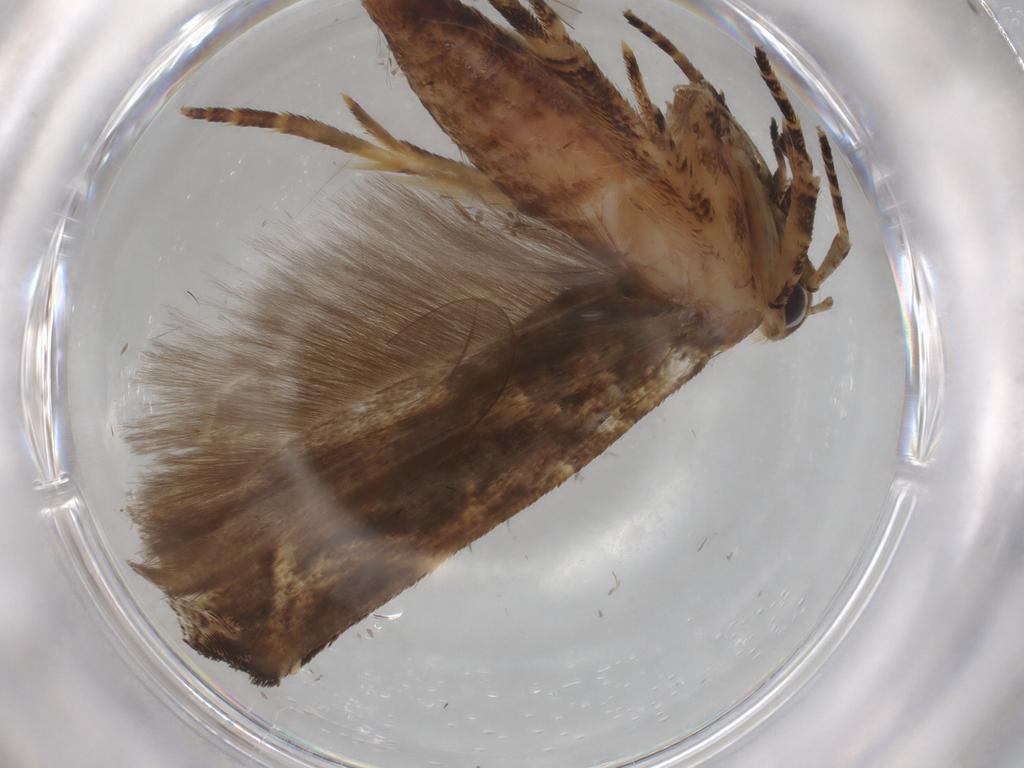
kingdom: Animalia
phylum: Arthropoda
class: Insecta
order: Lepidoptera
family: Gelechiidae
